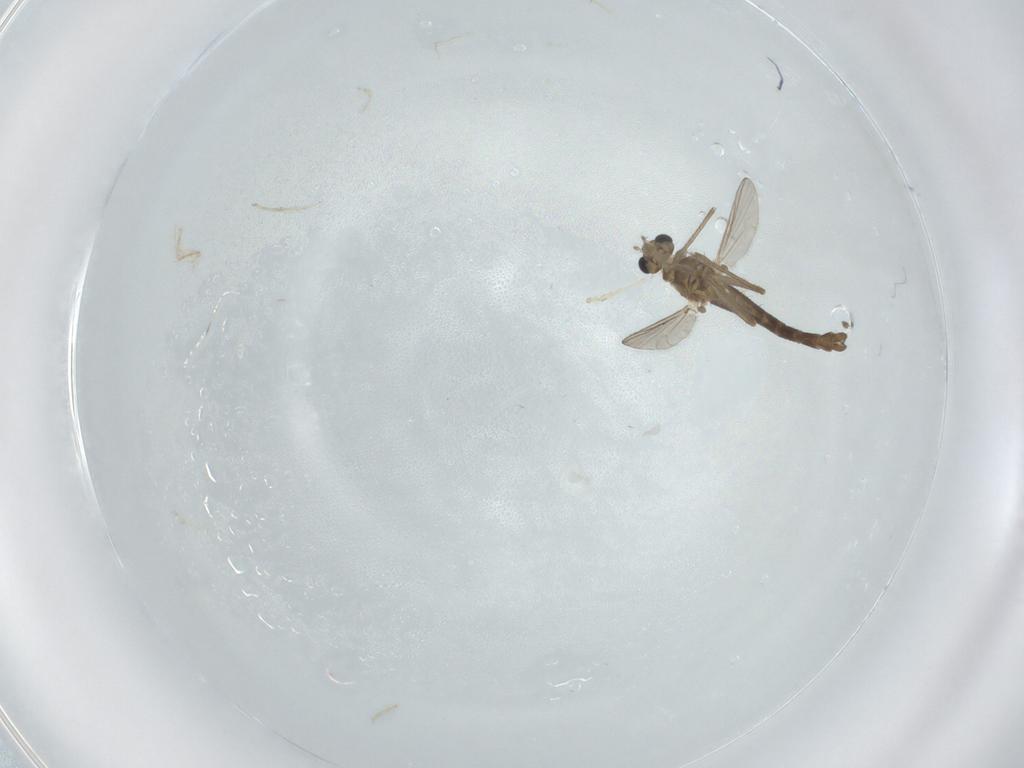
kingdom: Animalia
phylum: Arthropoda
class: Insecta
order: Diptera
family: Chironomidae
